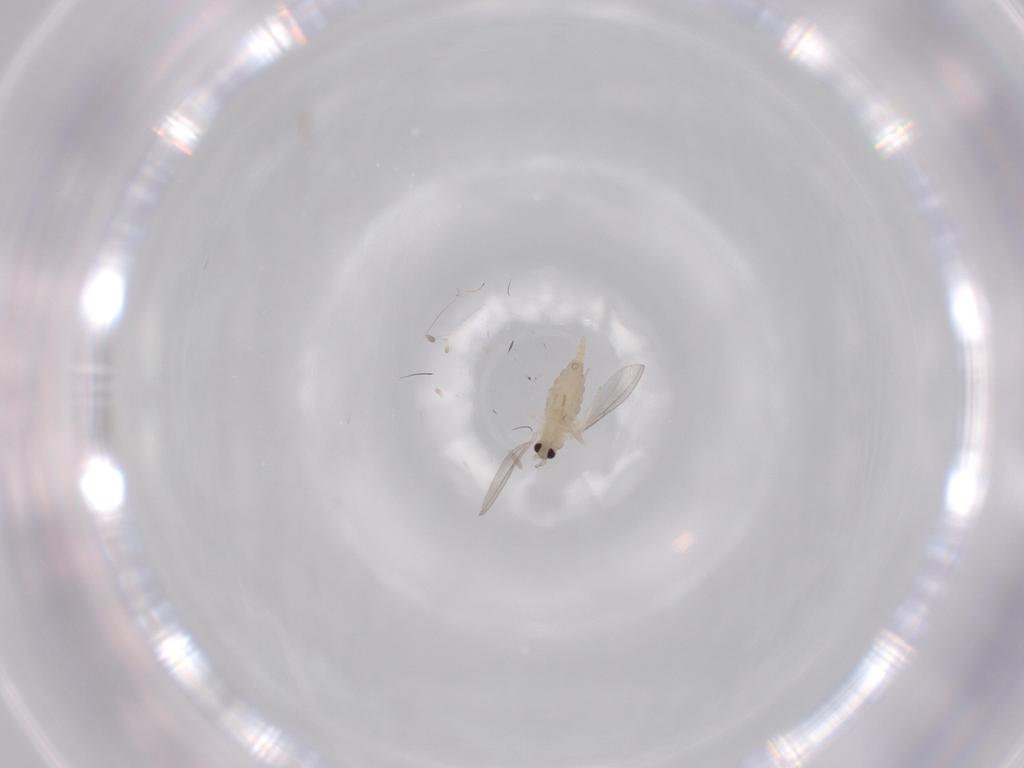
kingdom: Animalia
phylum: Arthropoda
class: Insecta
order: Diptera
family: Cecidomyiidae
